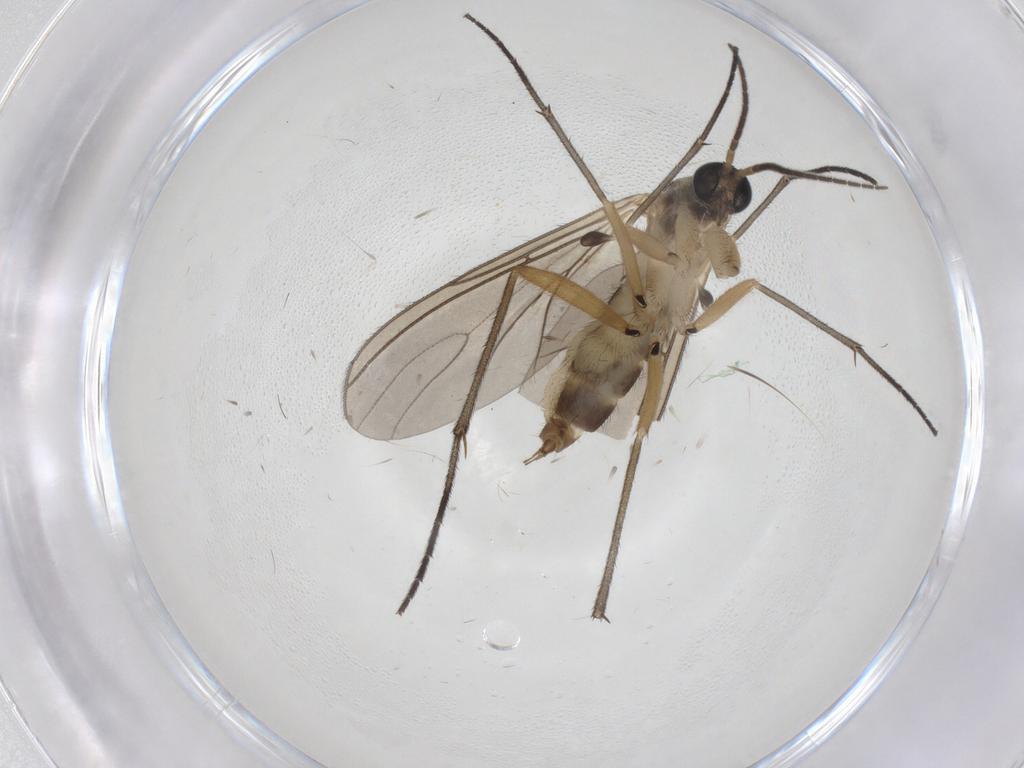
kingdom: Animalia
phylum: Arthropoda
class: Insecta
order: Diptera
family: Sciaridae
